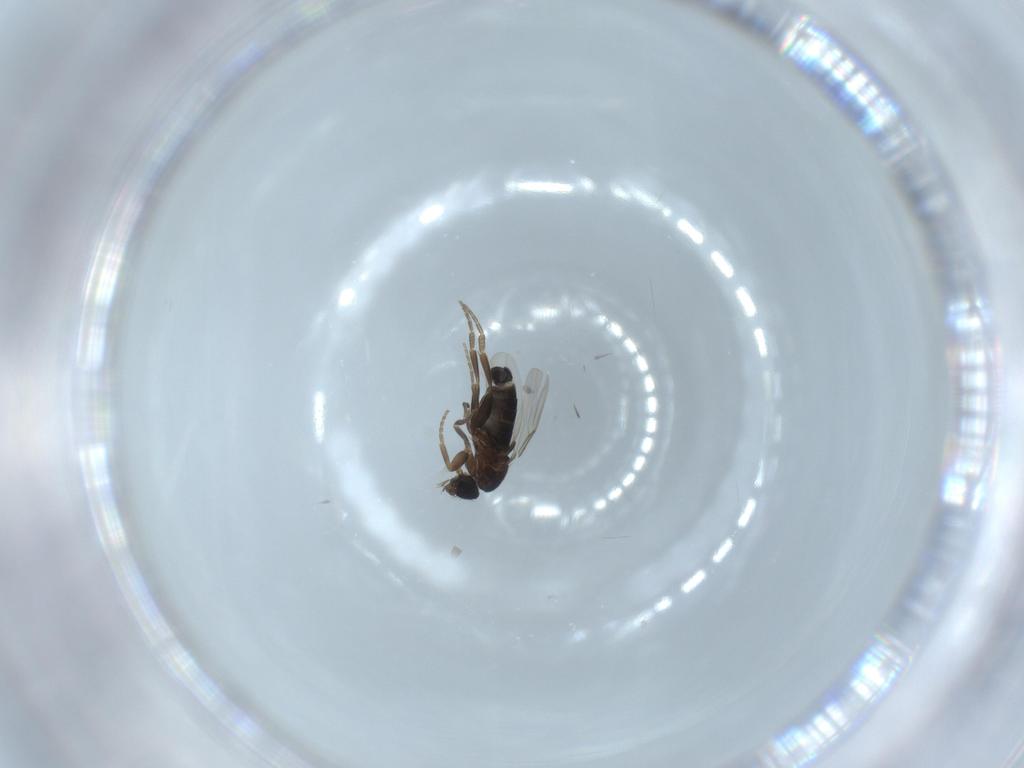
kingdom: Animalia
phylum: Arthropoda
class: Insecta
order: Diptera
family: Phoridae
